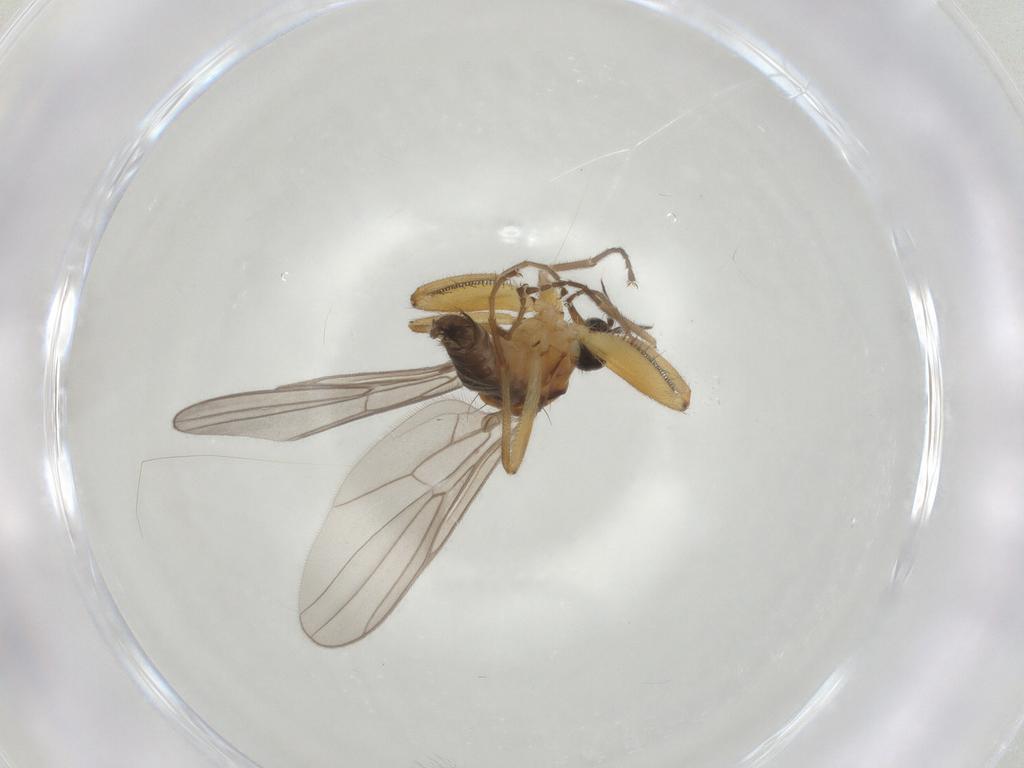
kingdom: Animalia
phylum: Arthropoda
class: Insecta
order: Diptera
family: Hybotidae
